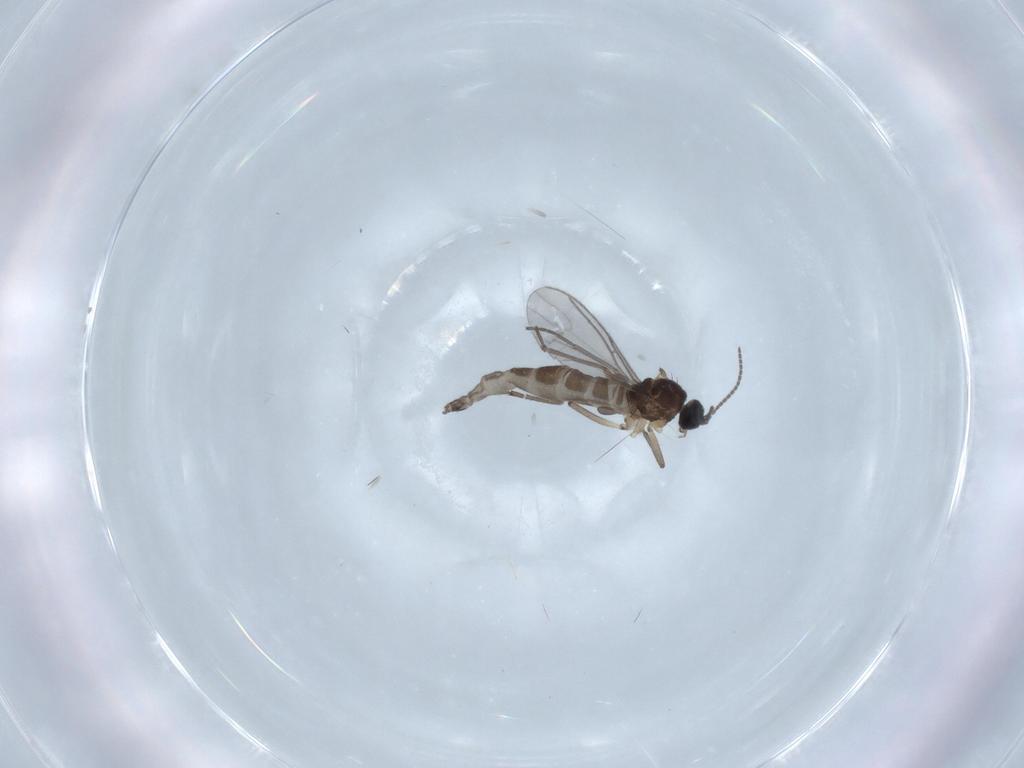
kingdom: Animalia
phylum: Arthropoda
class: Insecta
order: Diptera
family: Sciaridae
